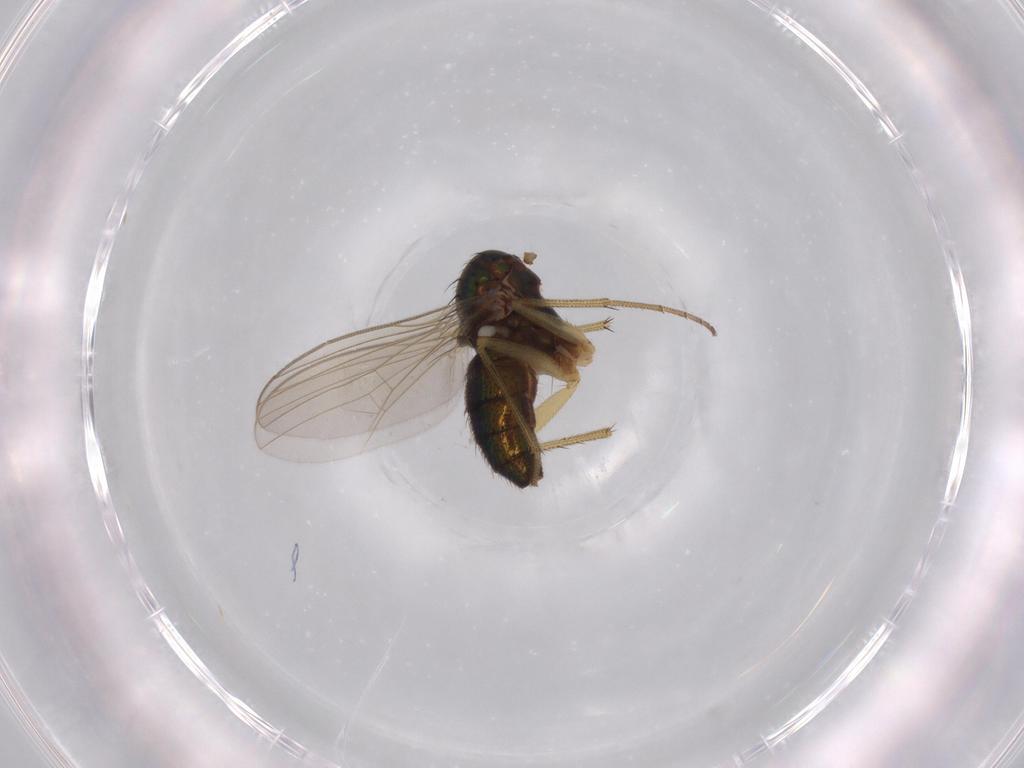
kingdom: Animalia
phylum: Arthropoda
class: Insecta
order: Diptera
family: Dolichopodidae
